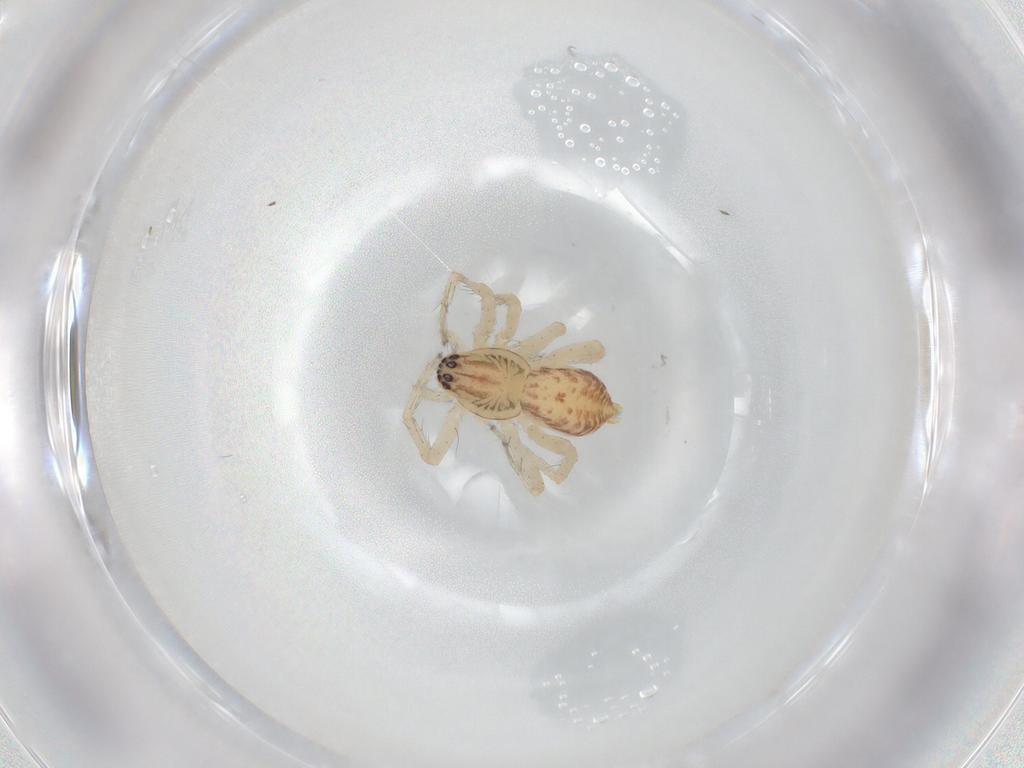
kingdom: Animalia
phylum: Arthropoda
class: Arachnida
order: Araneae
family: Anyphaenidae
